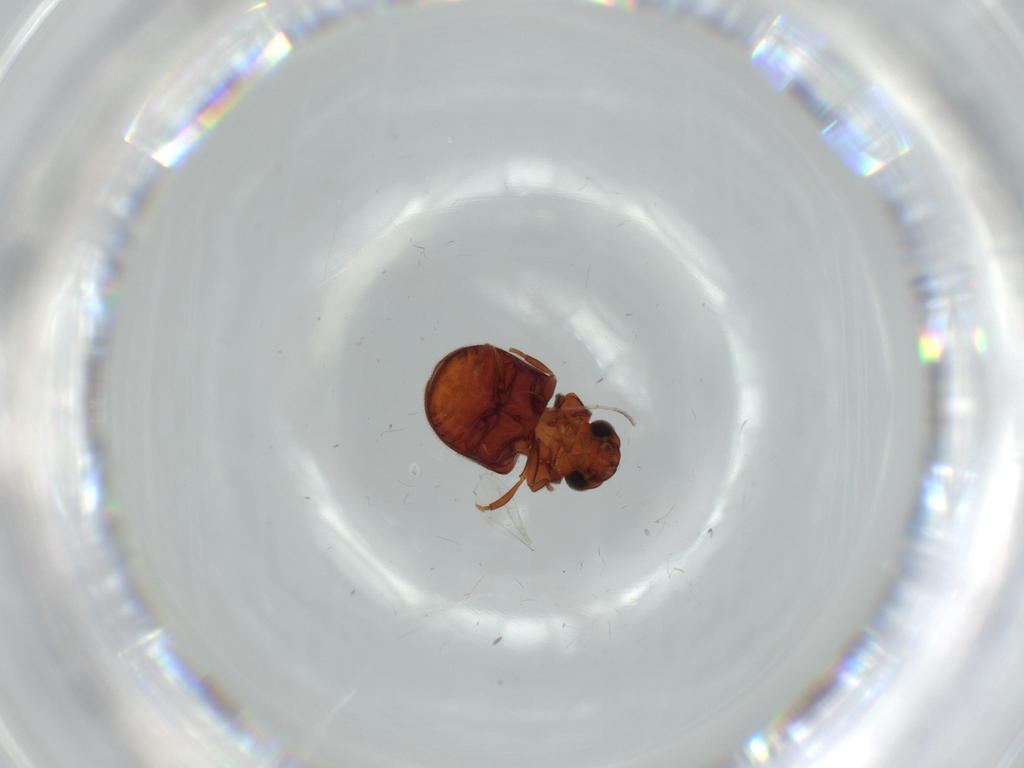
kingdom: Animalia
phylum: Arthropoda
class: Insecta
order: Coleoptera
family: Ptinidae
